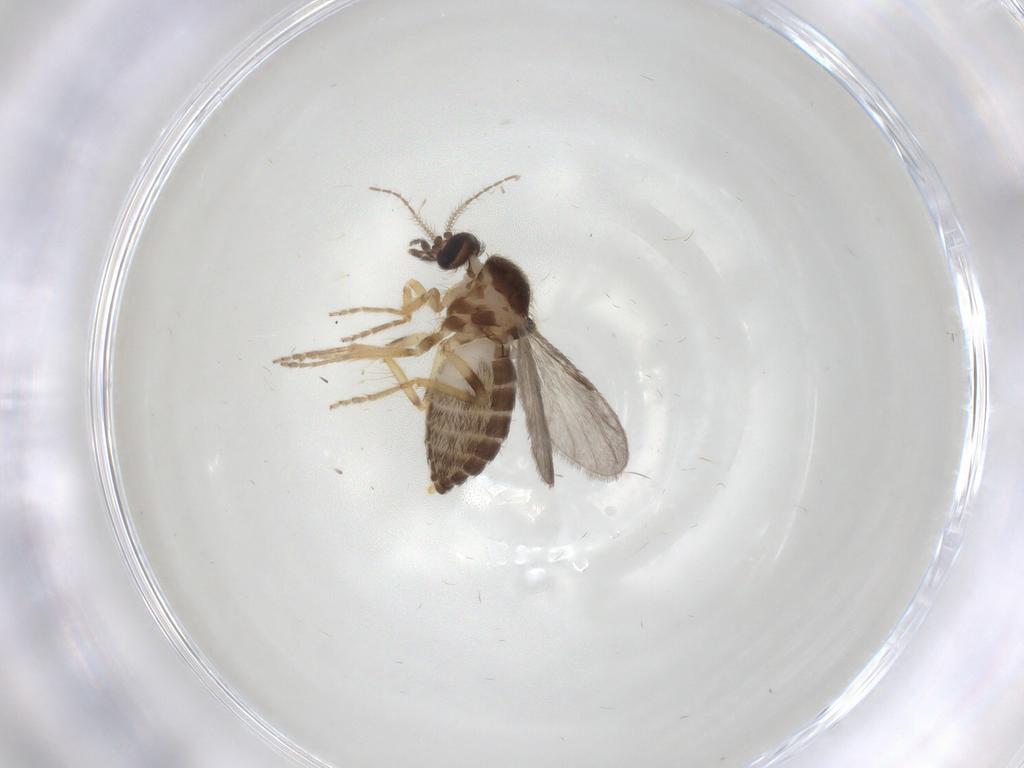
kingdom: Animalia
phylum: Arthropoda
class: Insecta
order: Diptera
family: Ceratopogonidae
